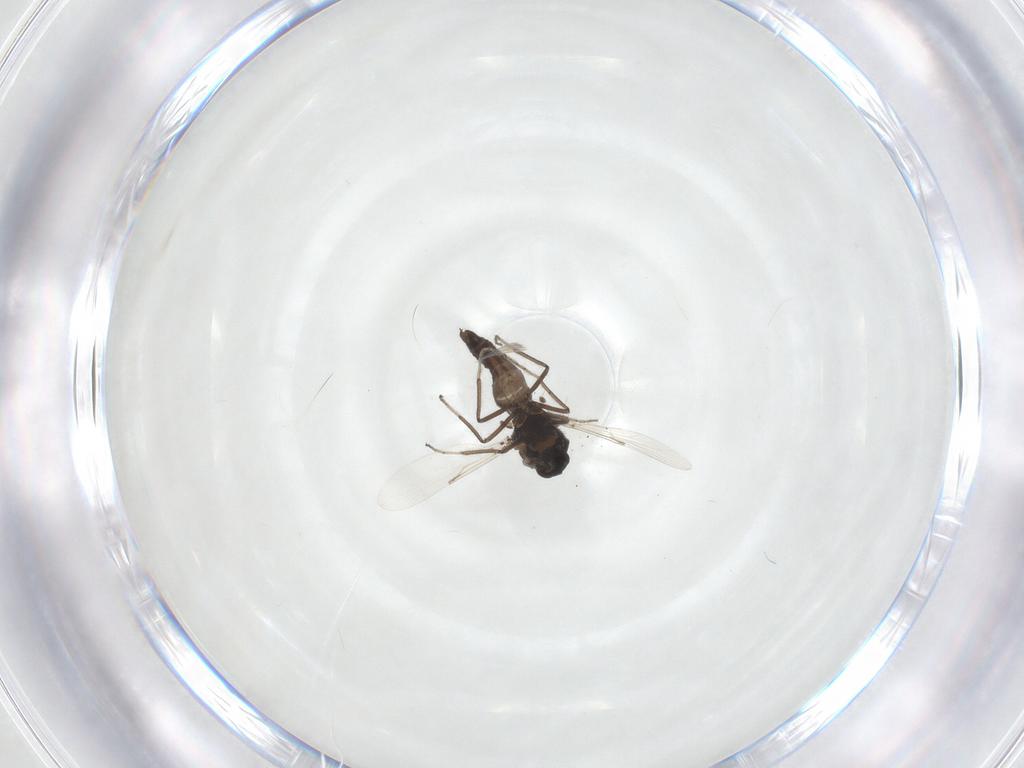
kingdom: Animalia
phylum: Arthropoda
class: Insecta
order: Diptera
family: Ceratopogonidae
